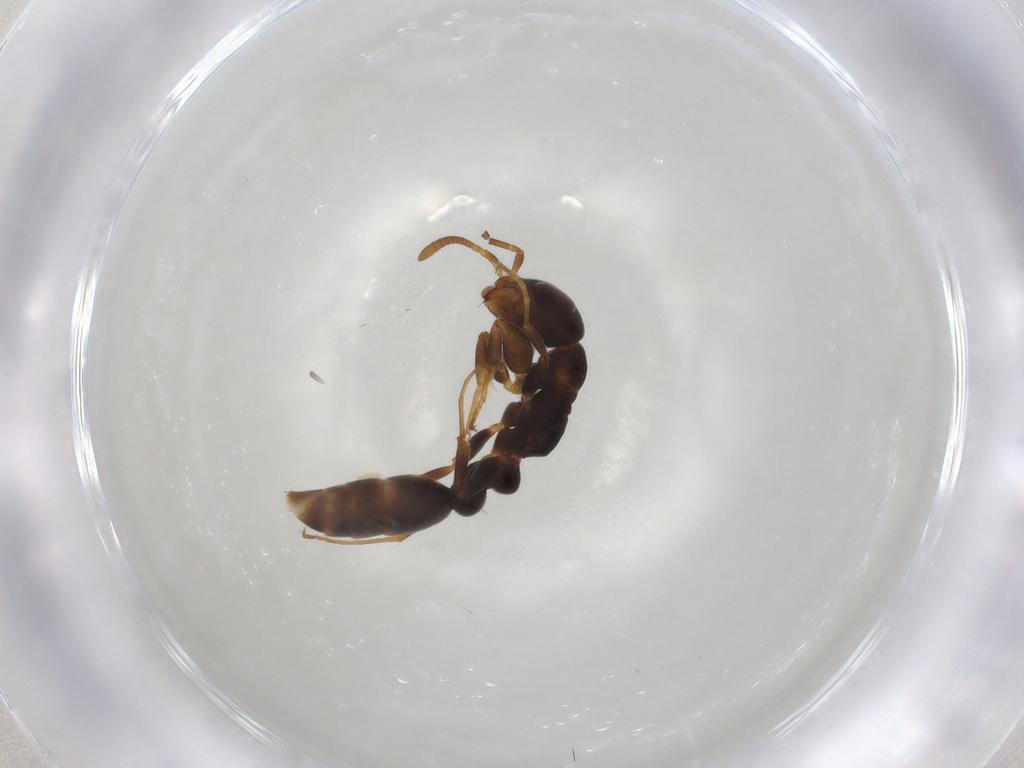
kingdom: Animalia
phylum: Arthropoda
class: Insecta
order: Hymenoptera
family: Formicidae
